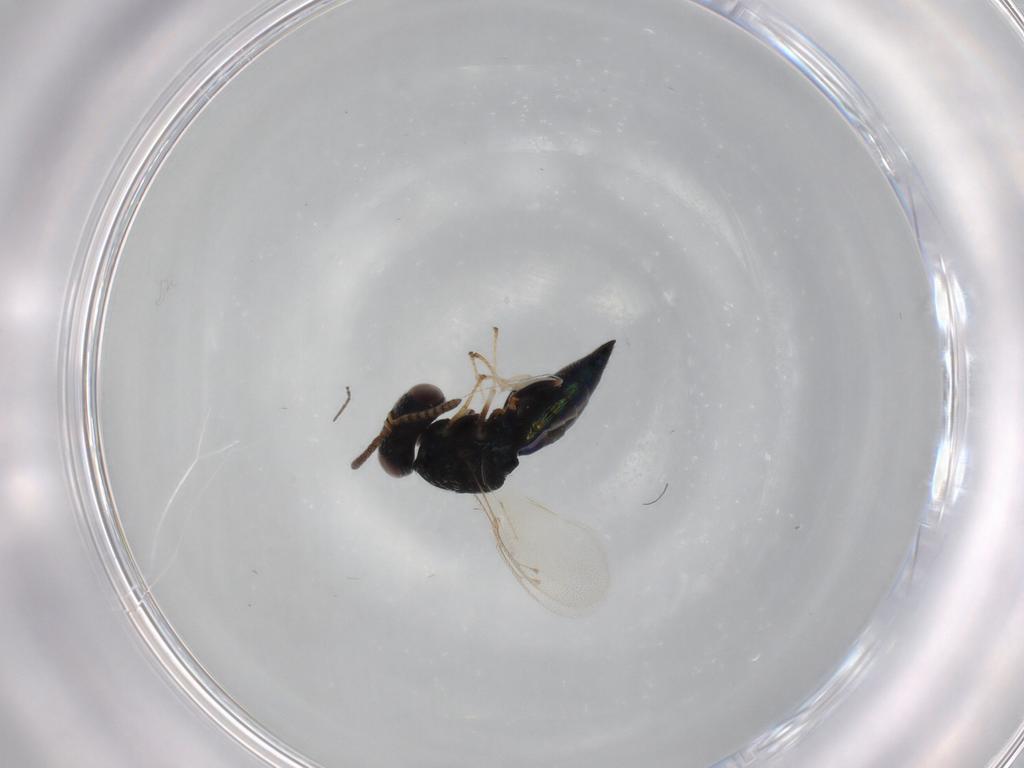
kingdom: Animalia
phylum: Arthropoda
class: Insecta
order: Hymenoptera
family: Pteromalidae
